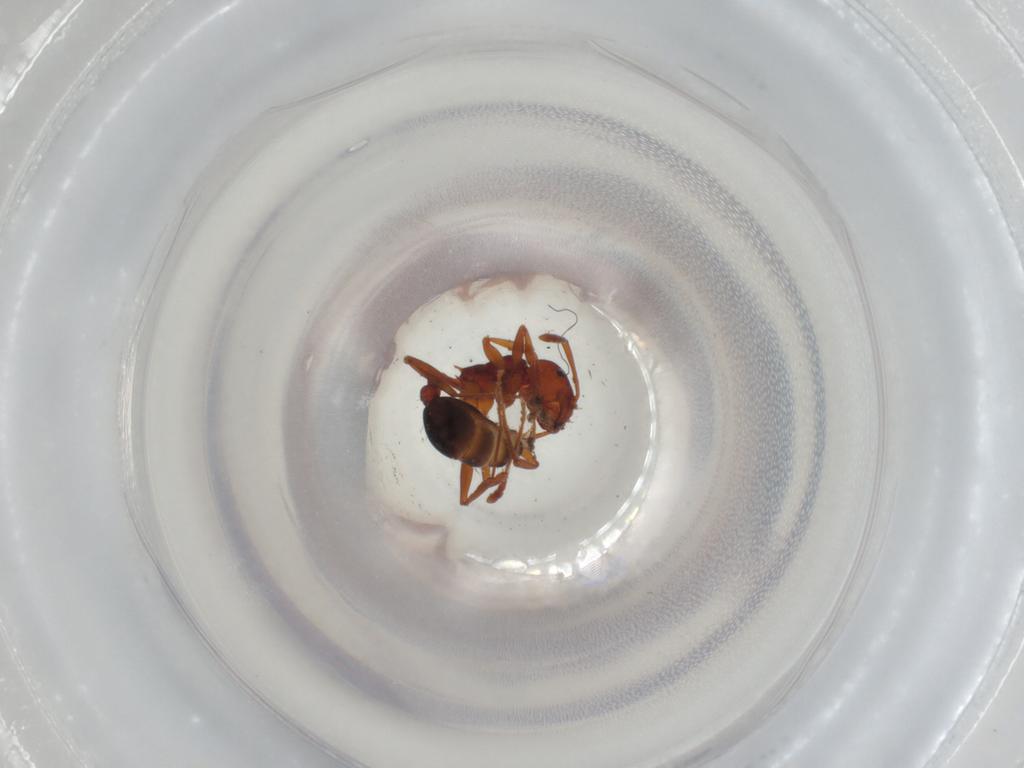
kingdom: Animalia
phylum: Arthropoda
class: Insecta
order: Hymenoptera
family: Formicidae
